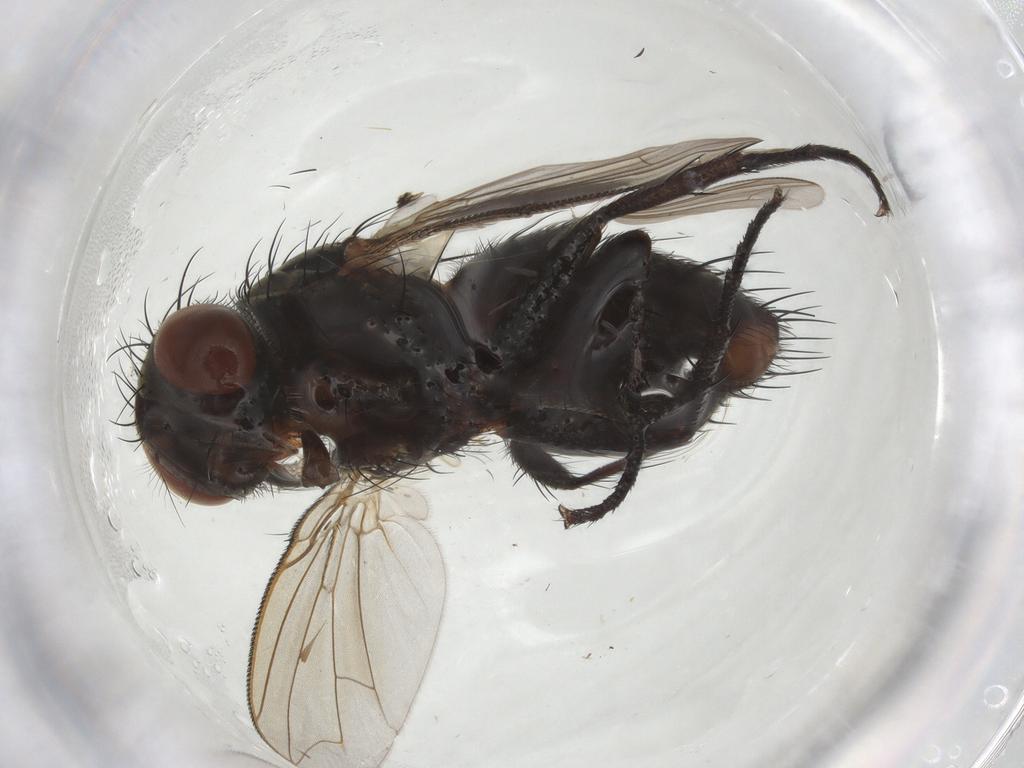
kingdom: Animalia
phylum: Arthropoda
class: Insecta
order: Diptera
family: Sarcophagidae
